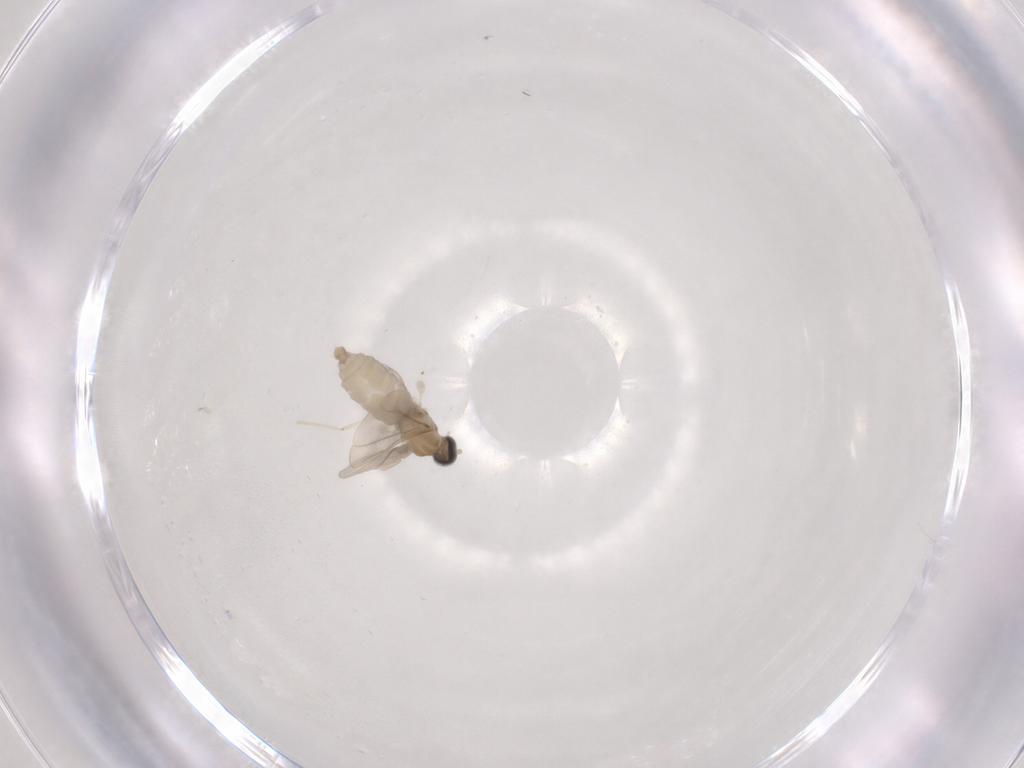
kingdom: Animalia
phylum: Arthropoda
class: Insecta
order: Diptera
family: Cecidomyiidae
